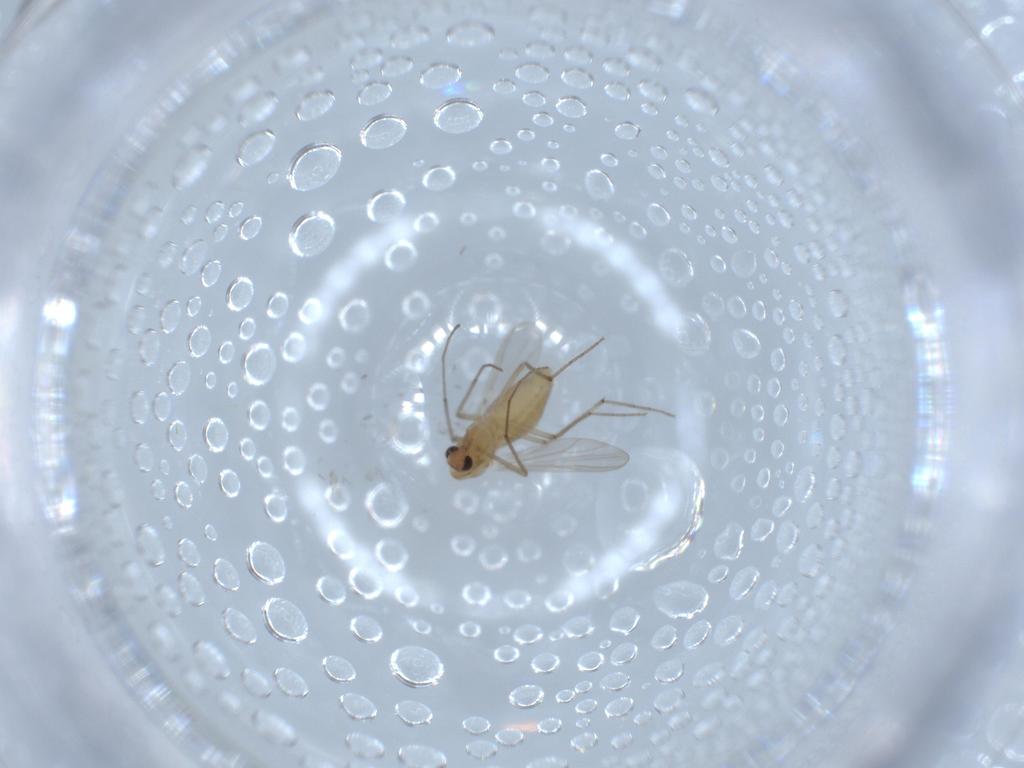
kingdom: Animalia
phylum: Arthropoda
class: Insecta
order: Diptera
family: Chironomidae
